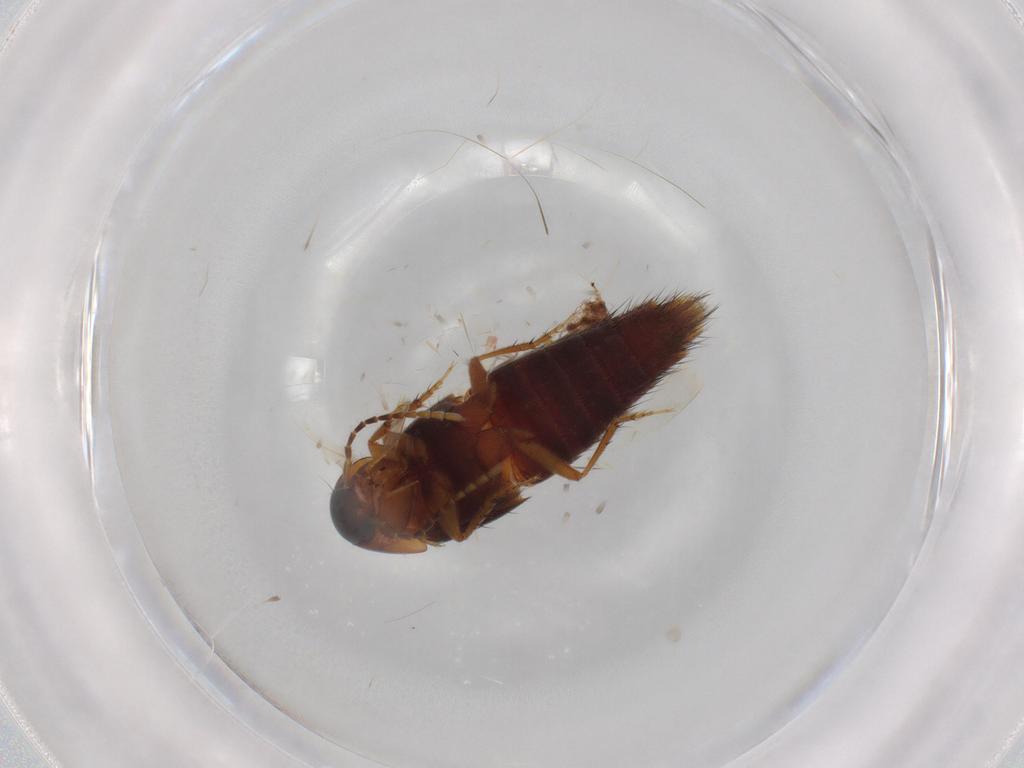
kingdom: Animalia
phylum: Arthropoda
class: Insecta
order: Coleoptera
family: Staphylinidae
